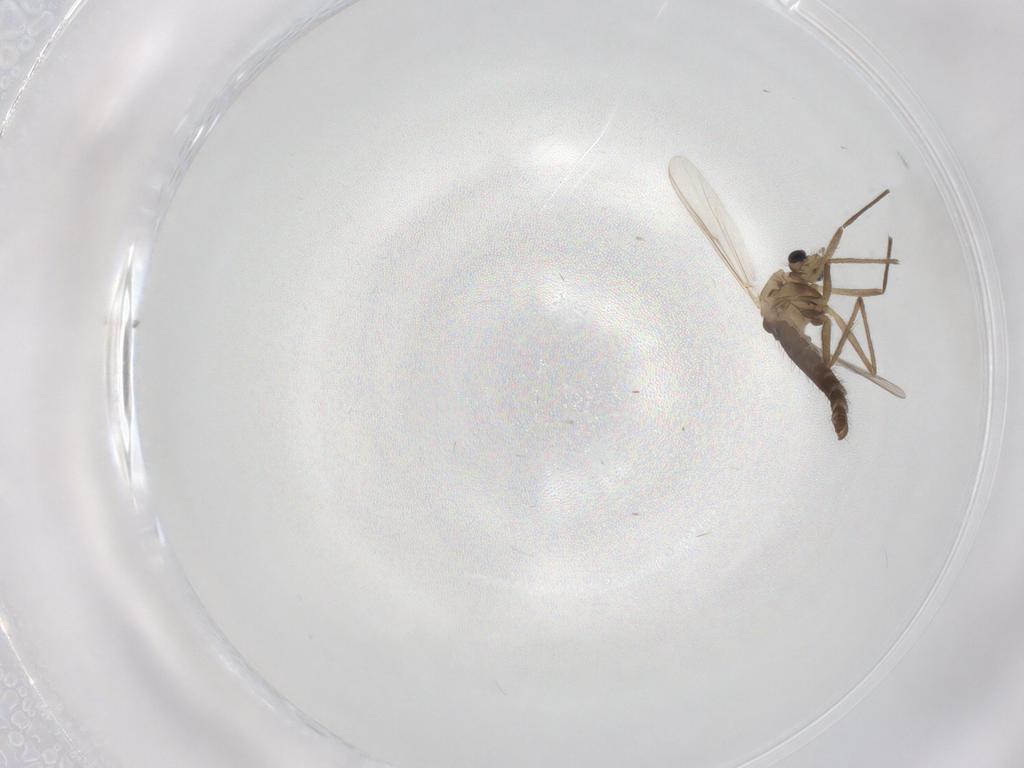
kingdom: Animalia
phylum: Arthropoda
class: Insecta
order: Diptera
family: Chironomidae
